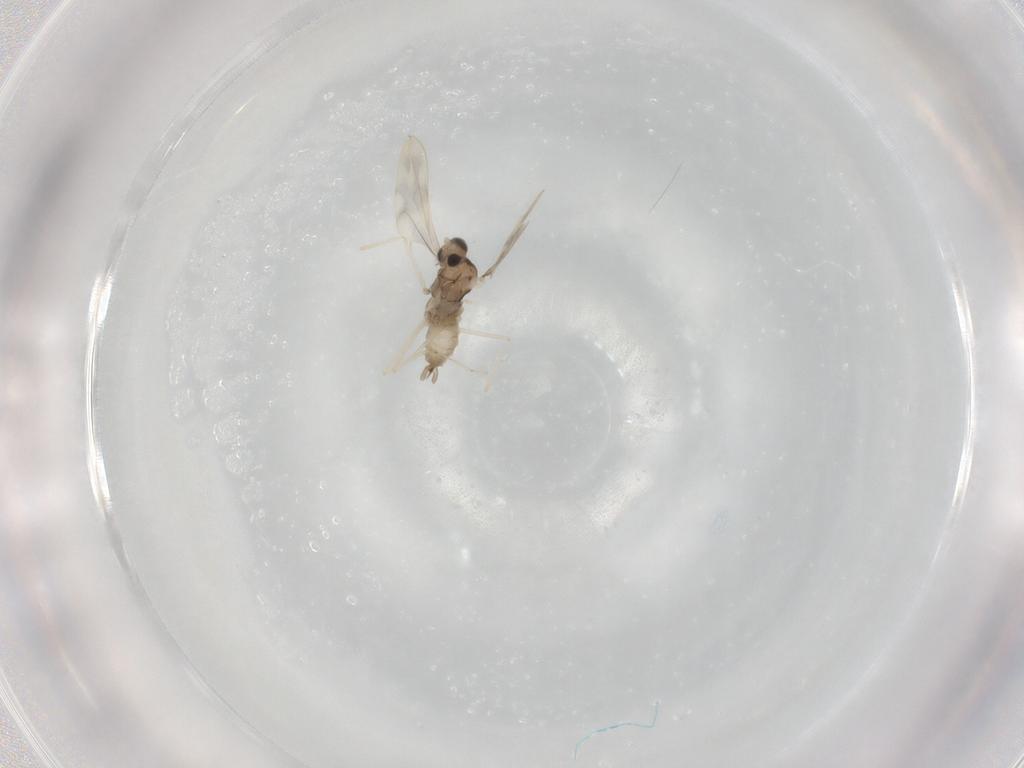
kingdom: Animalia
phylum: Arthropoda
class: Insecta
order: Diptera
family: Cecidomyiidae
